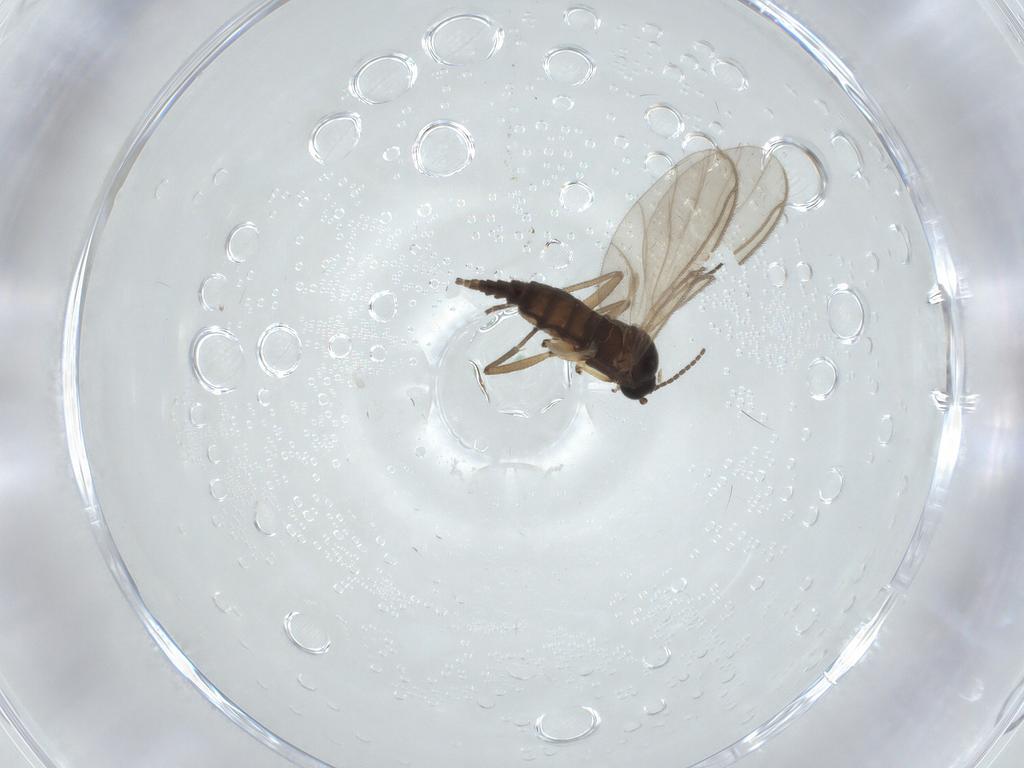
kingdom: Animalia
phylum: Arthropoda
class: Insecta
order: Diptera
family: Sciaridae
